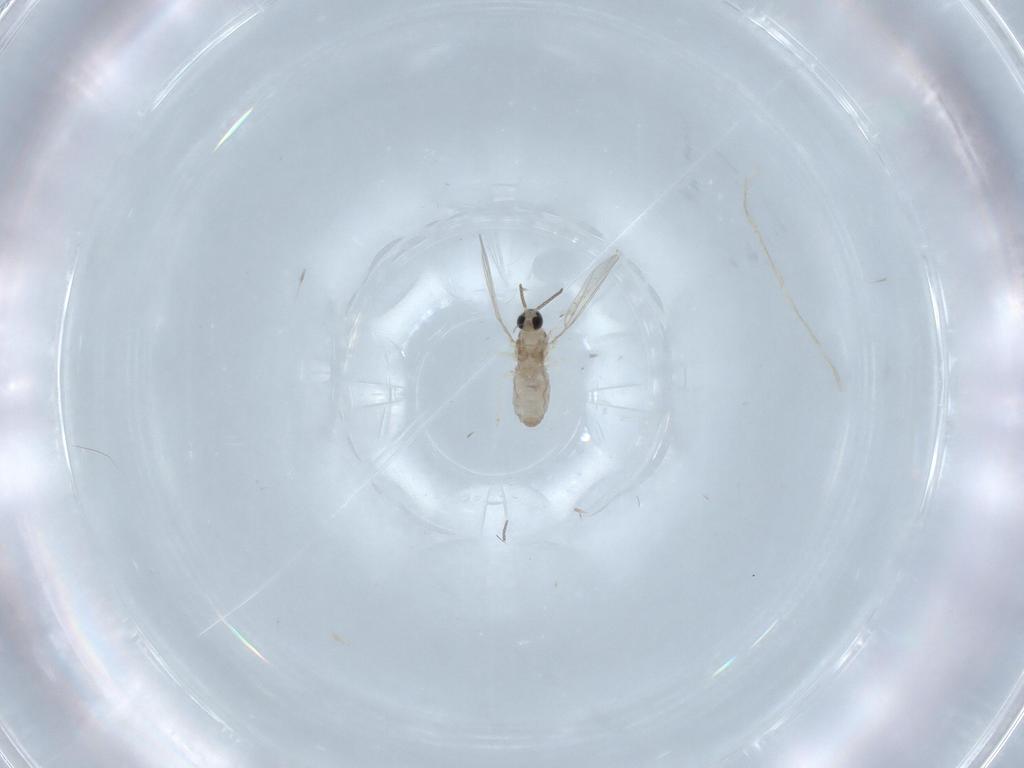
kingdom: Animalia
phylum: Arthropoda
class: Insecta
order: Diptera
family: Cecidomyiidae
